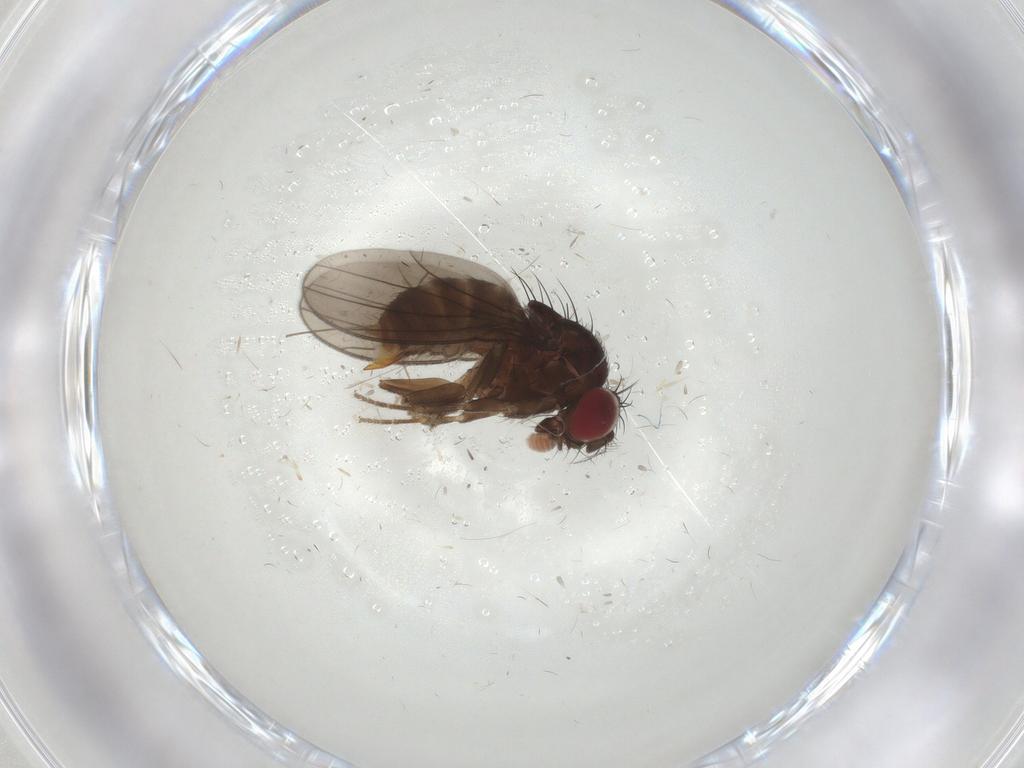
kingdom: Animalia
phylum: Arthropoda
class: Insecta
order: Diptera
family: Drosophilidae
